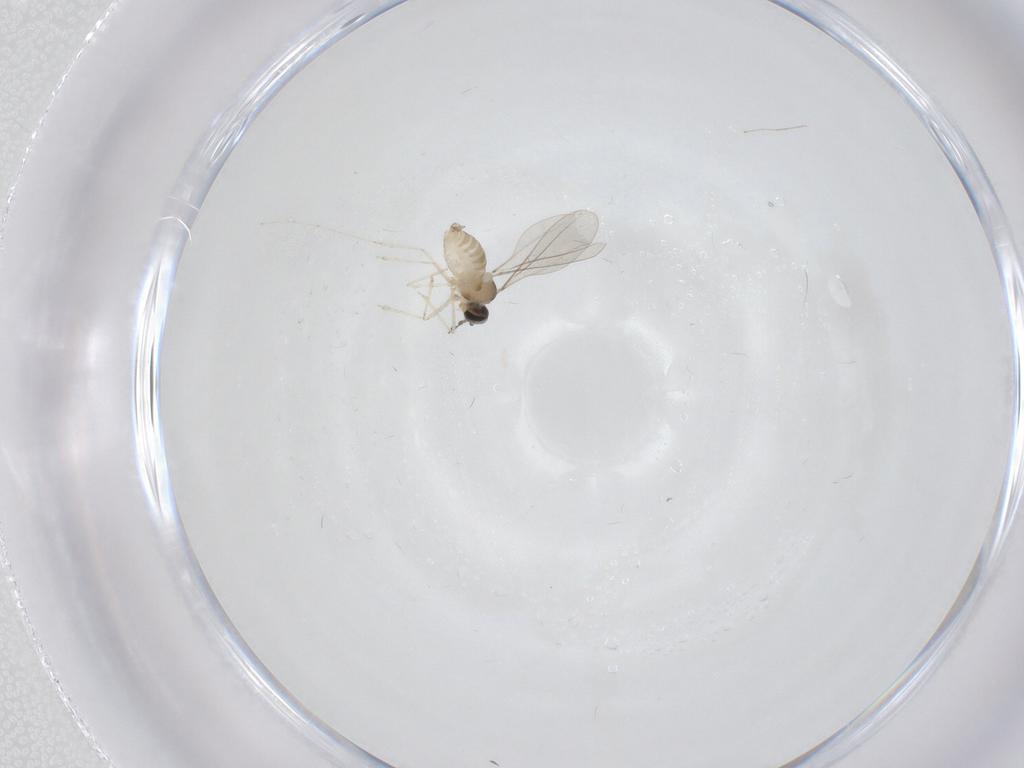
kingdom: Animalia
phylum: Arthropoda
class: Insecta
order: Diptera
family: Cecidomyiidae
